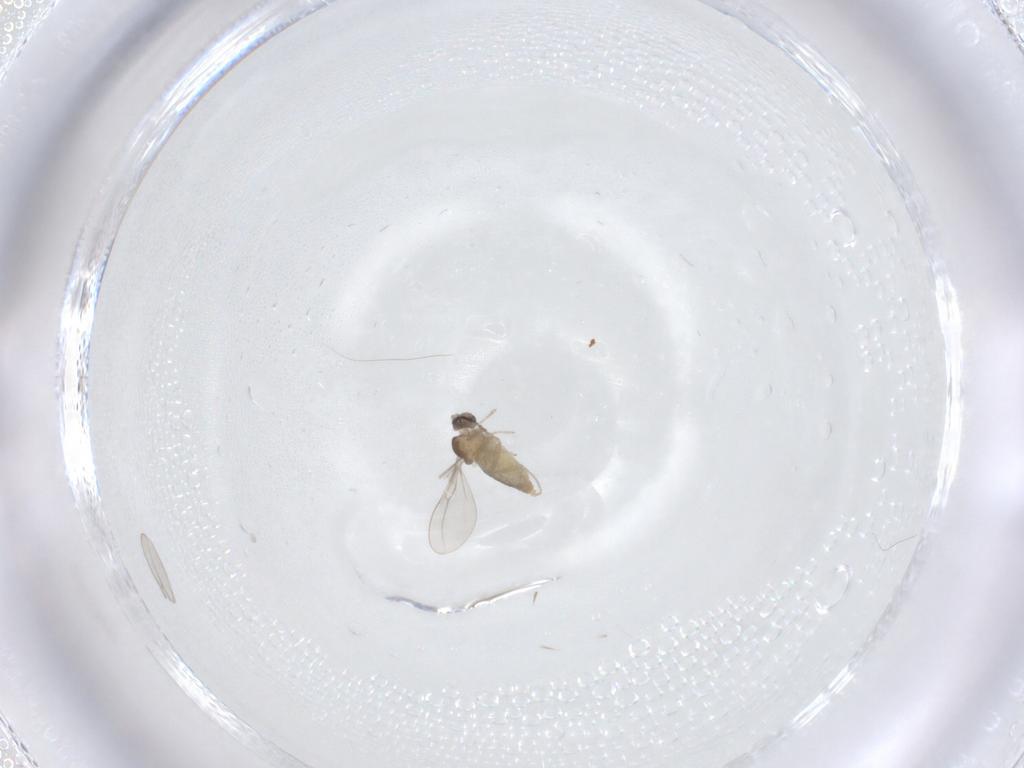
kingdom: Animalia
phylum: Arthropoda
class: Insecta
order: Diptera
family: Cecidomyiidae
